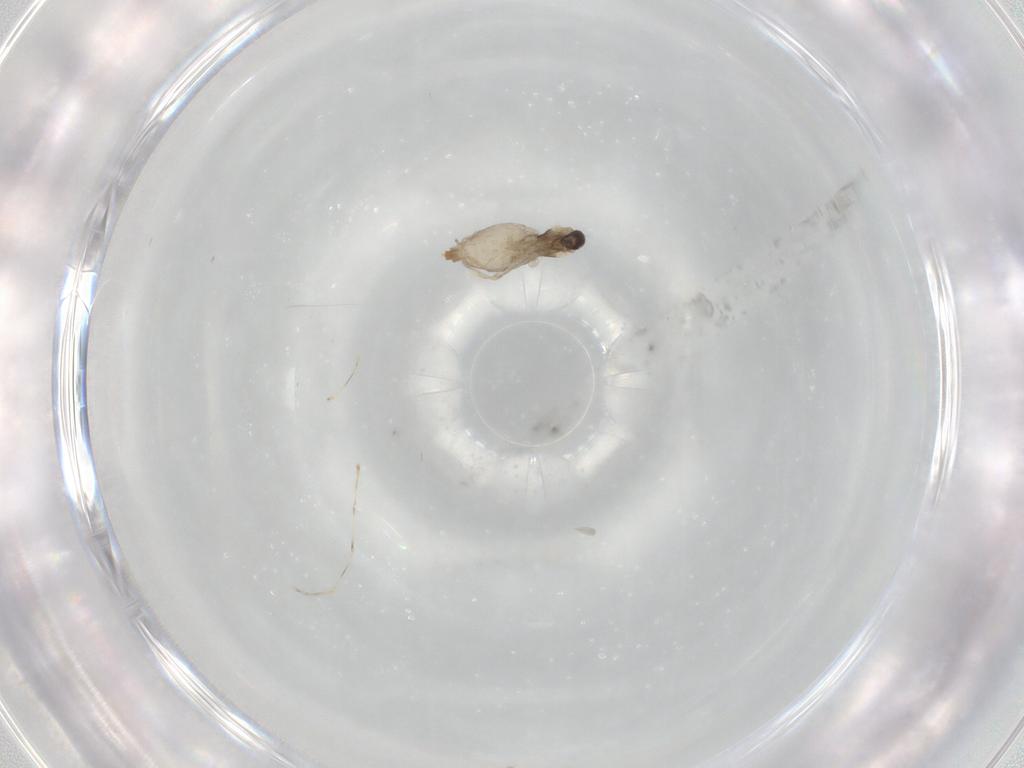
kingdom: Animalia
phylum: Arthropoda
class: Insecta
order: Diptera
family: Cecidomyiidae
